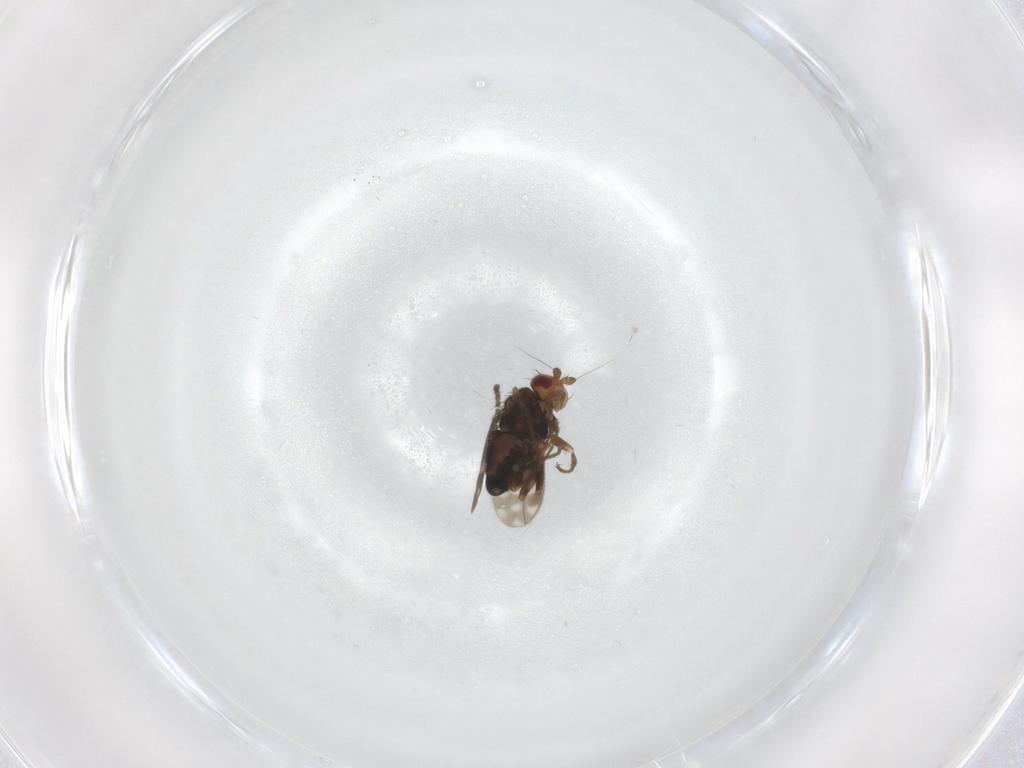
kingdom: Animalia
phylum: Arthropoda
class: Insecta
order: Diptera
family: Sphaeroceridae
